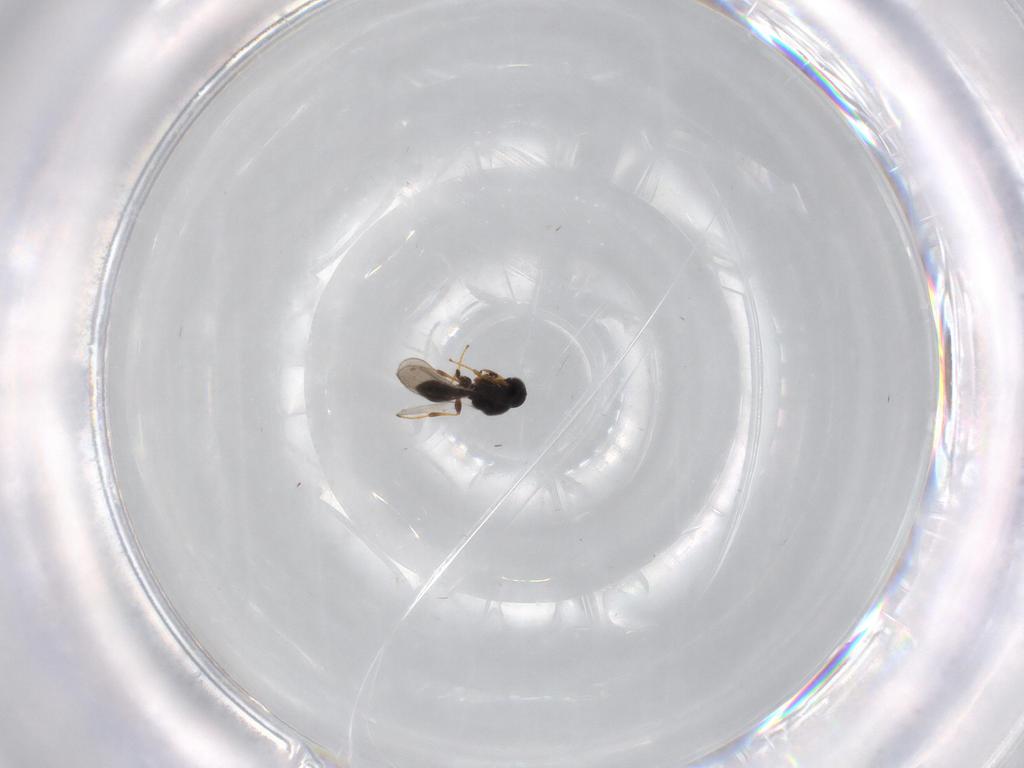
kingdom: Animalia
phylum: Arthropoda
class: Insecta
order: Hymenoptera
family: Platygastridae
